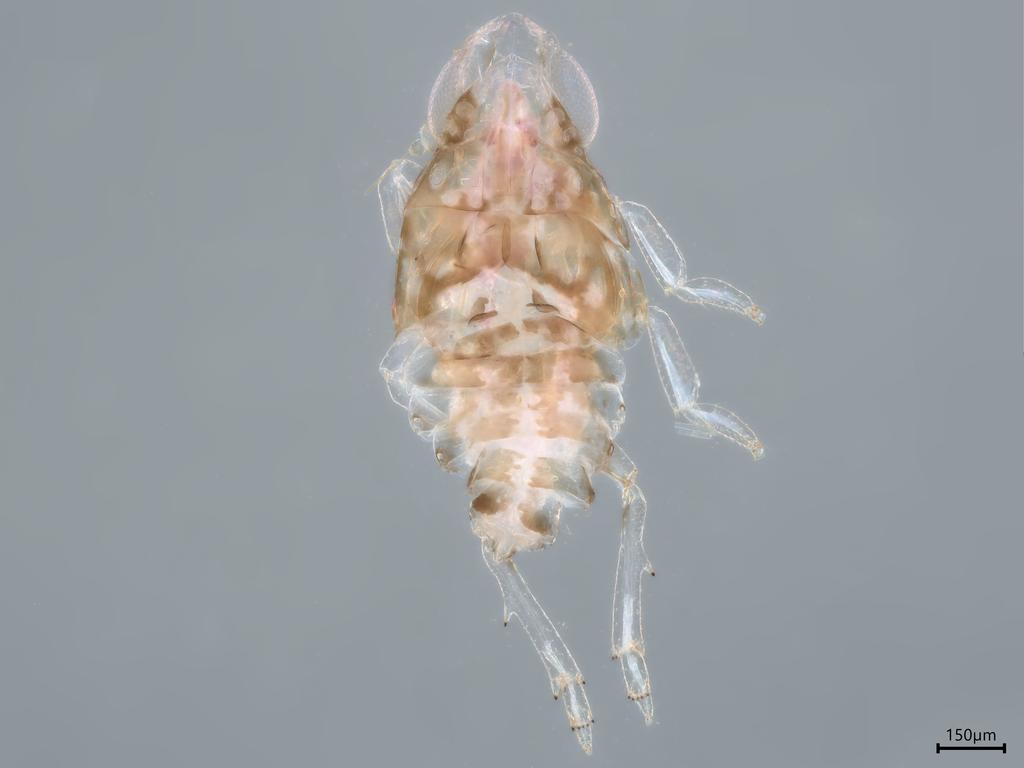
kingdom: Animalia
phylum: Arthropoda
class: Insecta
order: Hemiptera
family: Nogodinidae
